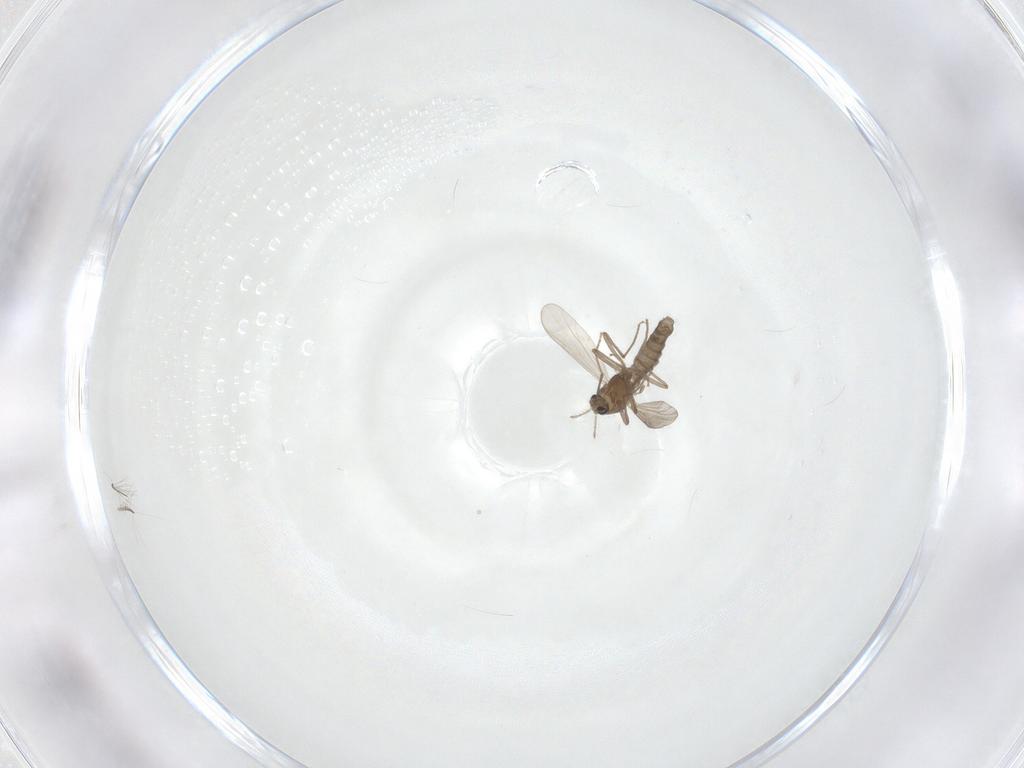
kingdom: Animalia
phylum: Arthropoda
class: Insecta
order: Diptera
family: Chironomidae
